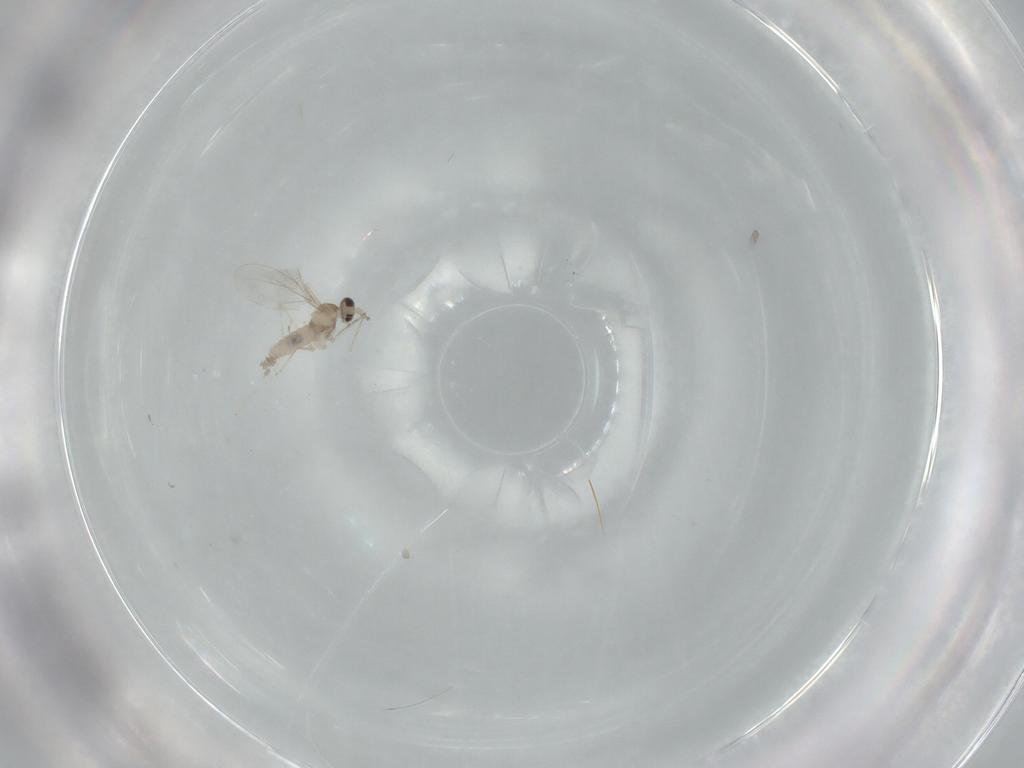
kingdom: Animalia
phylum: Arthropoda
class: Insecta
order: Diptera
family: Cecidomyiidae
